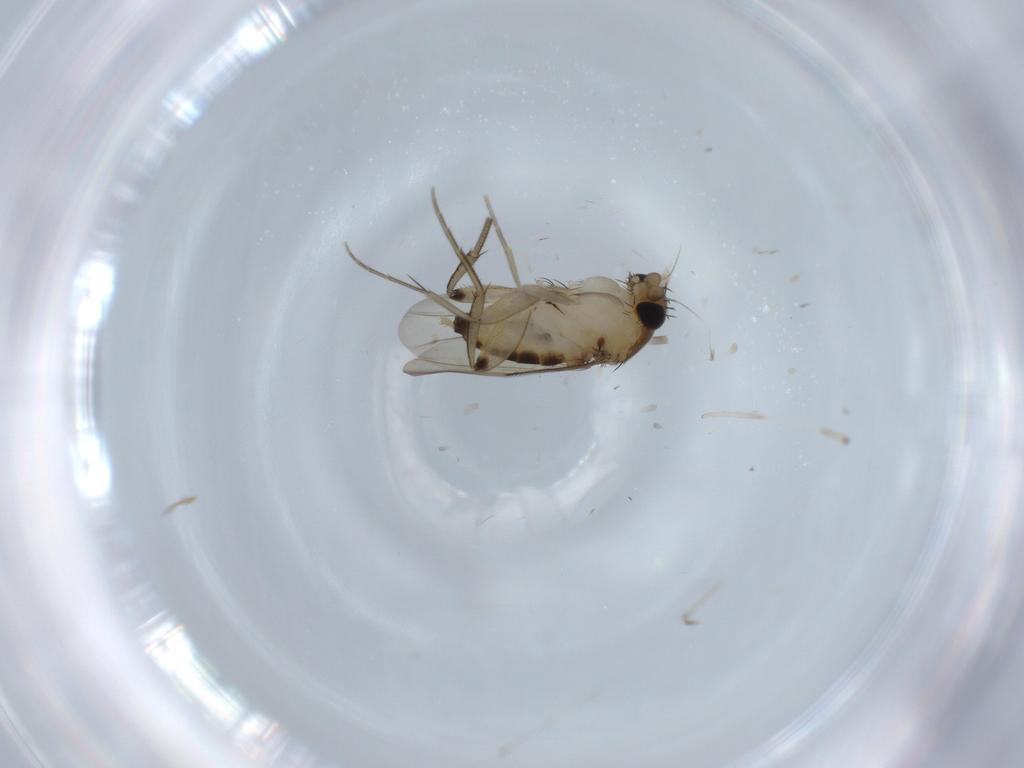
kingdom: Animalia
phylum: Arthropoda
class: Insecta
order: Diptera
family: Phoridae
